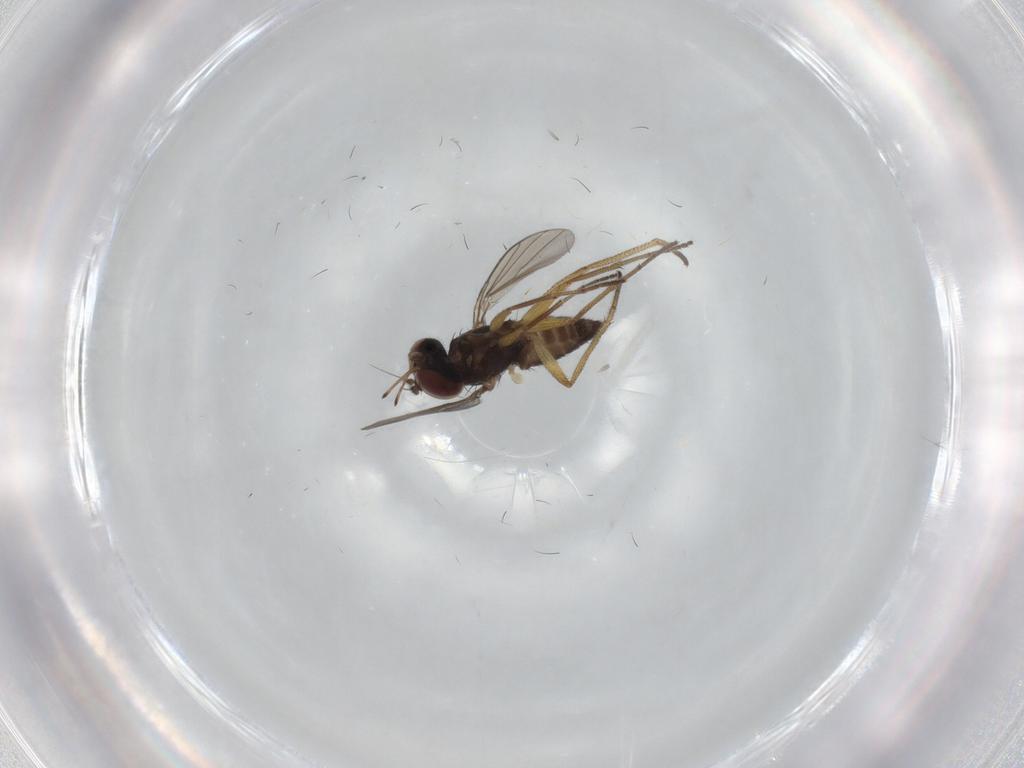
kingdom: Animalia
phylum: Arthropoda
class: Insecta
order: Diptera
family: Dolichopodidae
